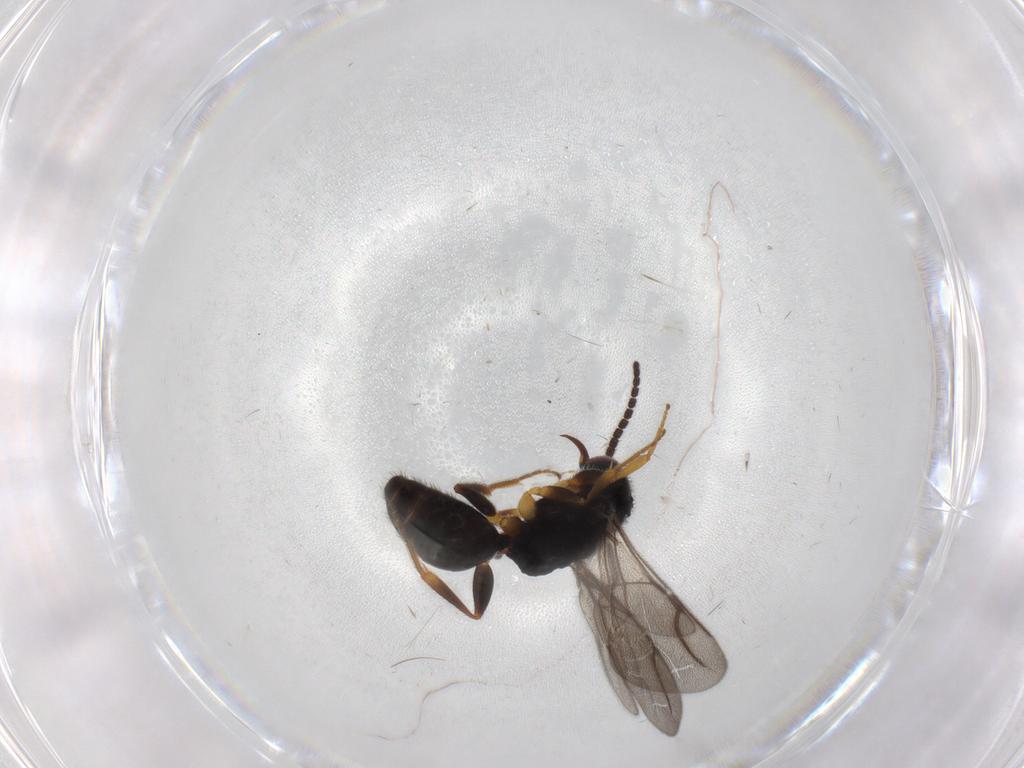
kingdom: Animalia
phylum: Arthropoda
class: Insecta
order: Hymenoptera
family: Bethylidae
